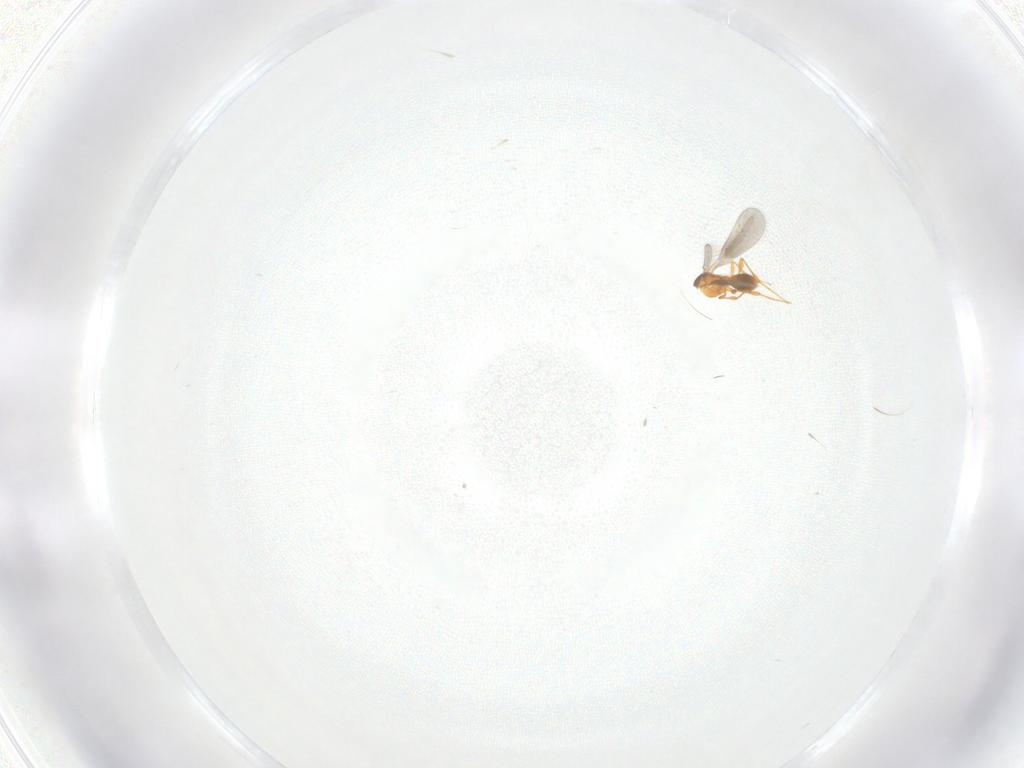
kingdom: Animalia
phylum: Arthropoda
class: Insecta
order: Hymenoptera
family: Platygastridae
